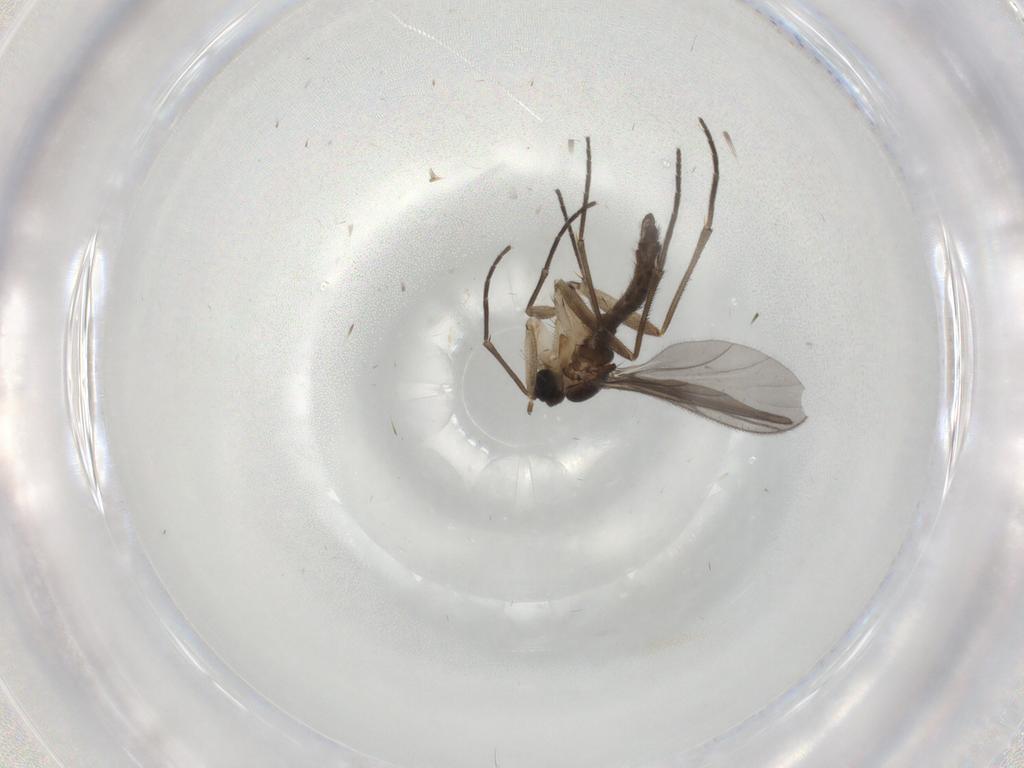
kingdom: Animalia
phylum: Arthropoda
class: Insecta
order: Diptera
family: Sciaridae
